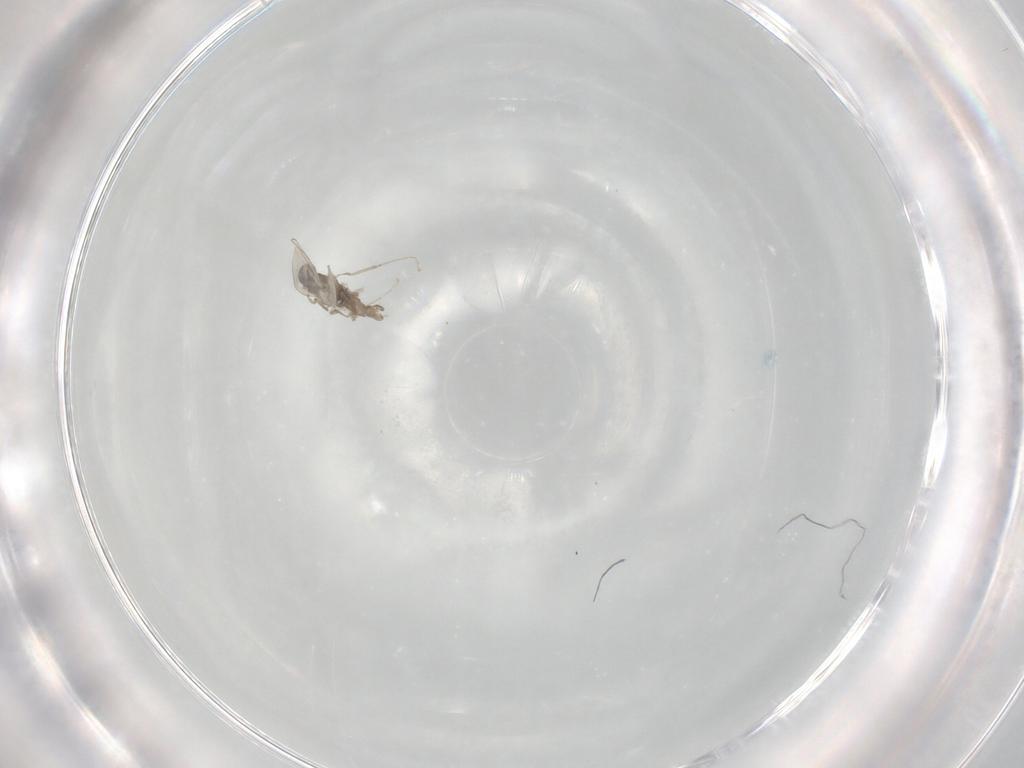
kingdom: Animalia
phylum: Arthropoda
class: Insecta
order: Diptera
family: Cecidomyiidae
